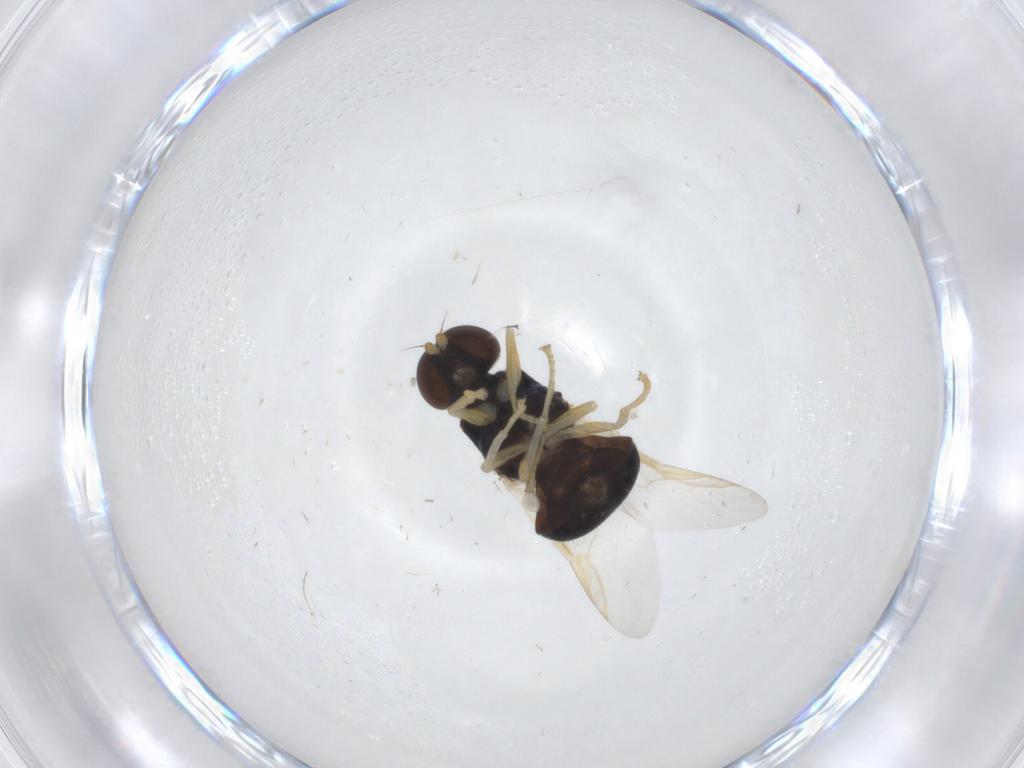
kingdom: Animalia
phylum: Arthropoda
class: Insecta
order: Diptera
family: Stratiomyidae
